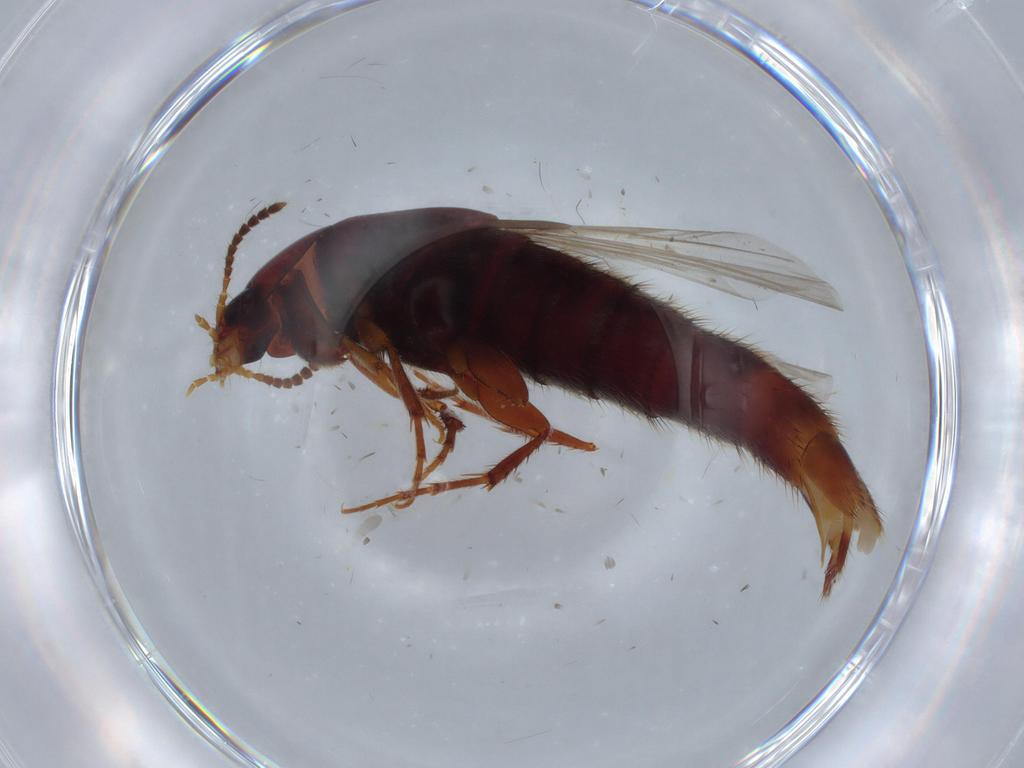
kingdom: Animalia
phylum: Arthropoda
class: Insecta
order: Coleoptera
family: Staphylinidae
